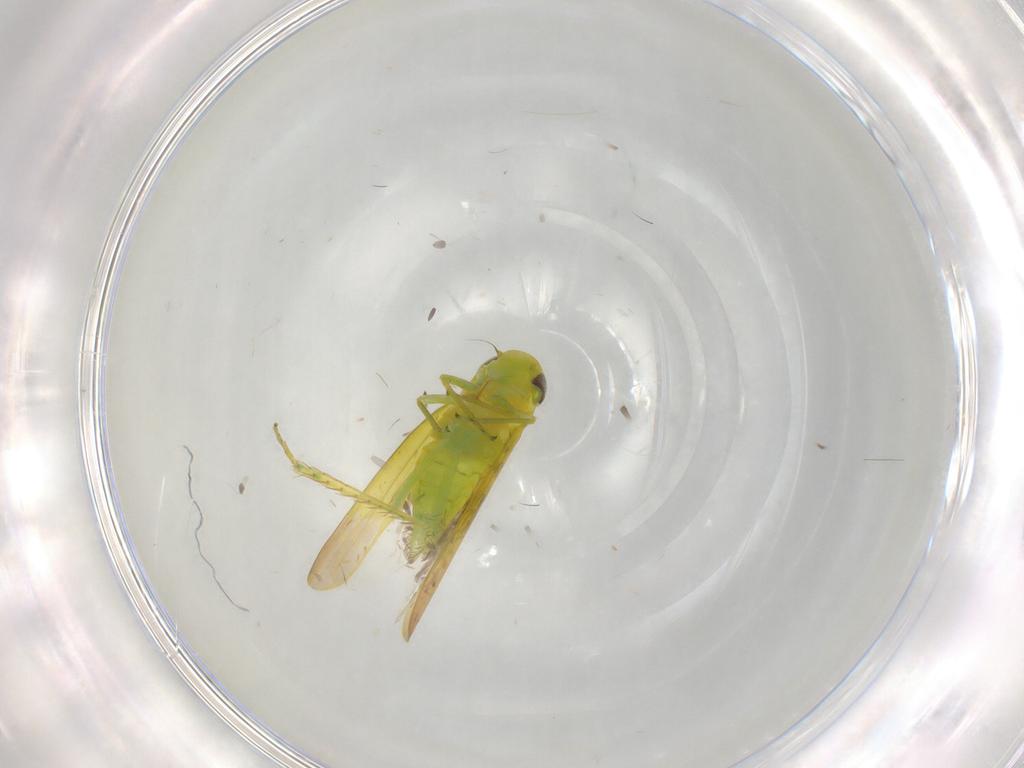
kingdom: Animalia
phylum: Arthropoda
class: Insecta
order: Hemiptera
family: Cicadellidae
